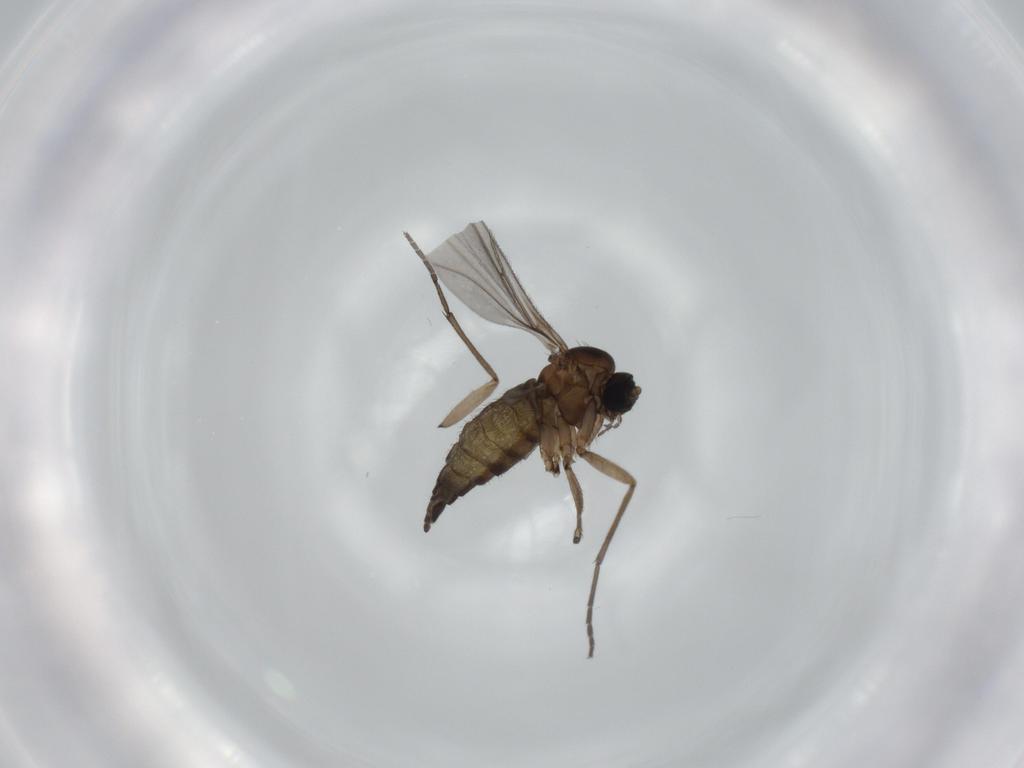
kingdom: Animalia
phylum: Arthropoda
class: Insecta
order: Diptera
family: Sciaridae
